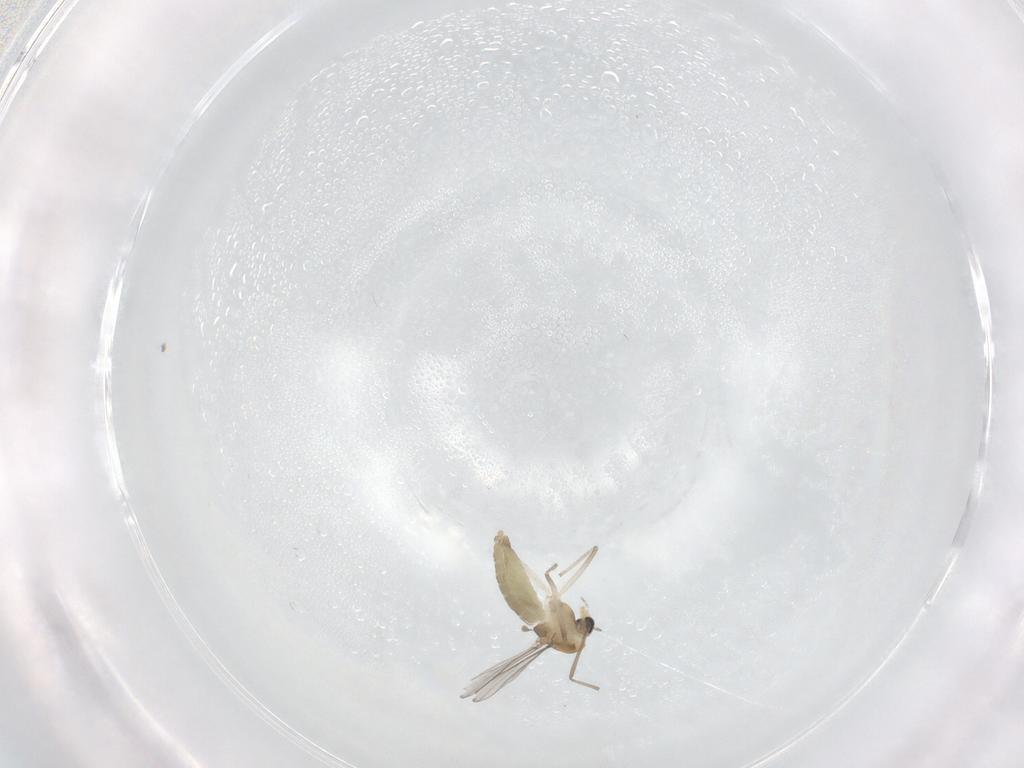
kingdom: Animalia
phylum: Arthropoda
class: Insecta
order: Diptera
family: Ceratopogonidae
